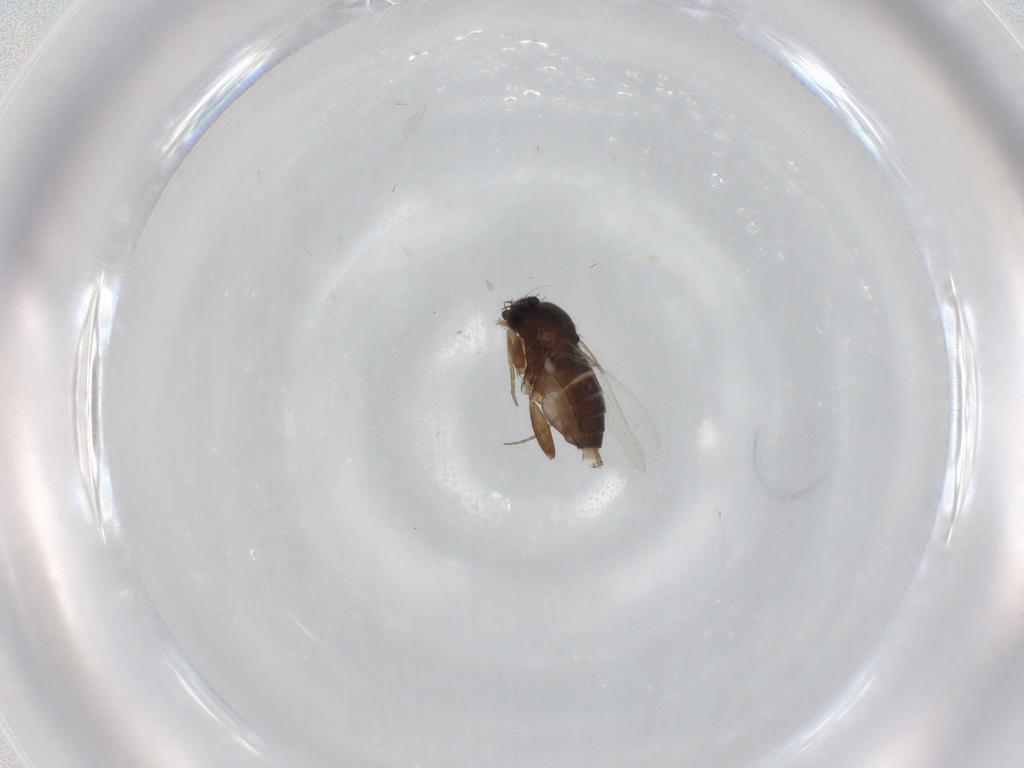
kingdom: Animalia
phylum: Arthropoda
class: Insecta
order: Diptera
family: Phoridae
